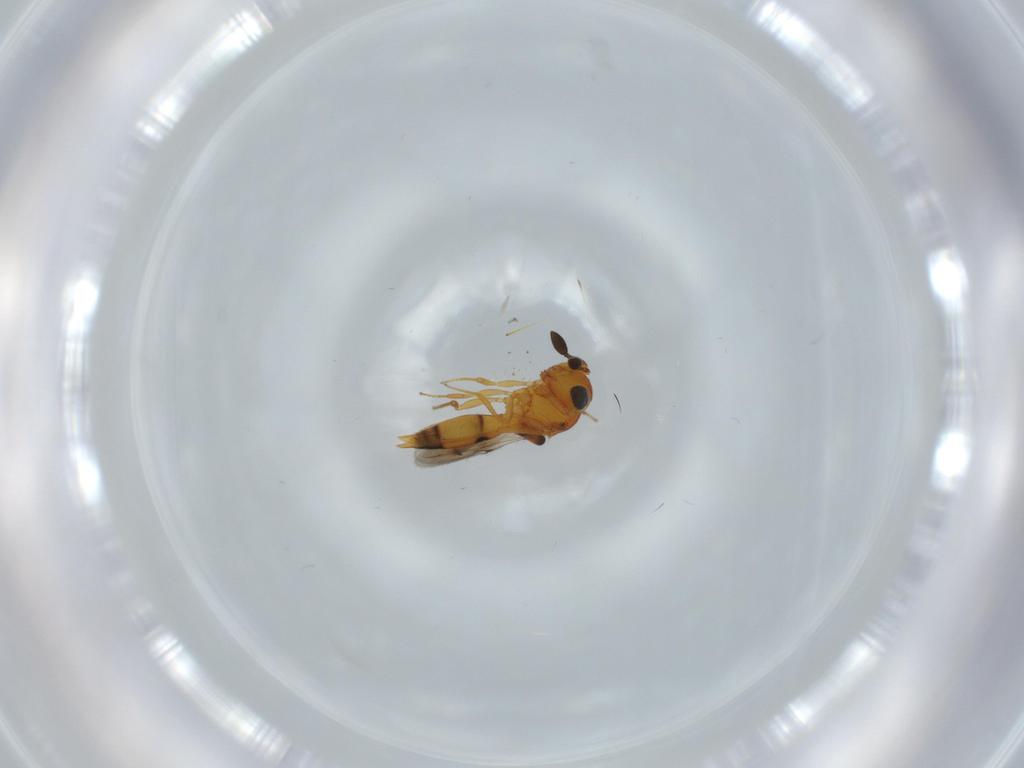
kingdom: Animalia
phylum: Arthropoda
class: Insecta
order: Hymenoptera
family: Scelionidae
